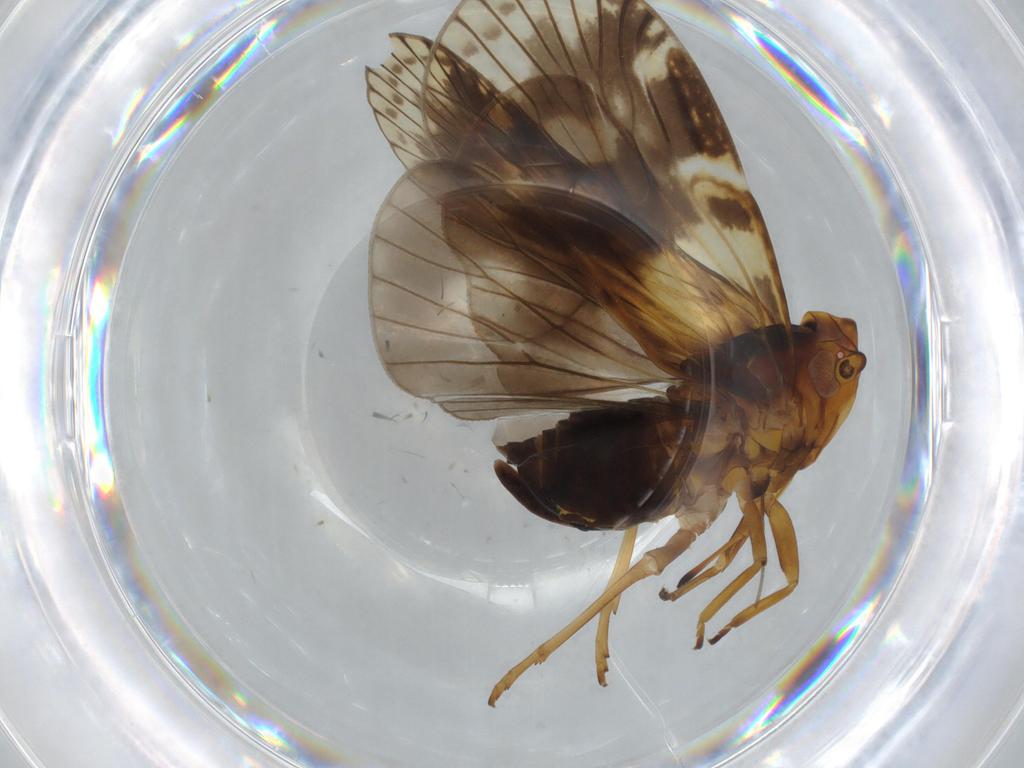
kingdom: Animalia
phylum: Arthropoda
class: Insecta
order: Hemiptera
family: Cixiidae
